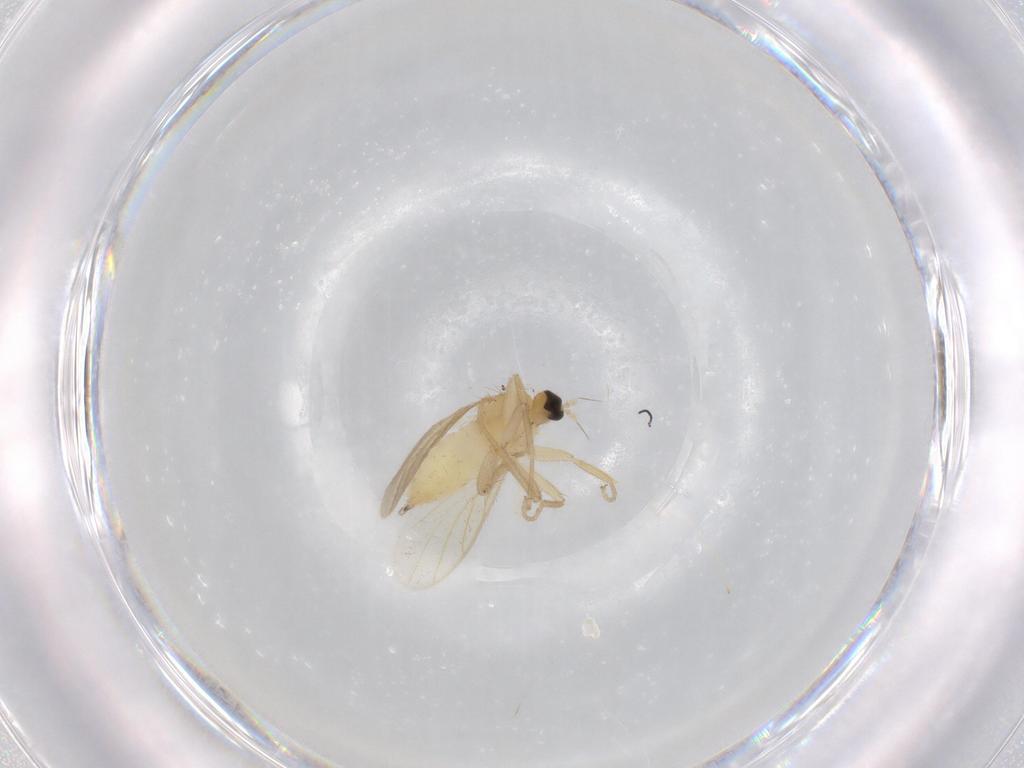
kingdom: Animalia
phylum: Arthropoda
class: Insecta
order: Diptera
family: Hybotidae
